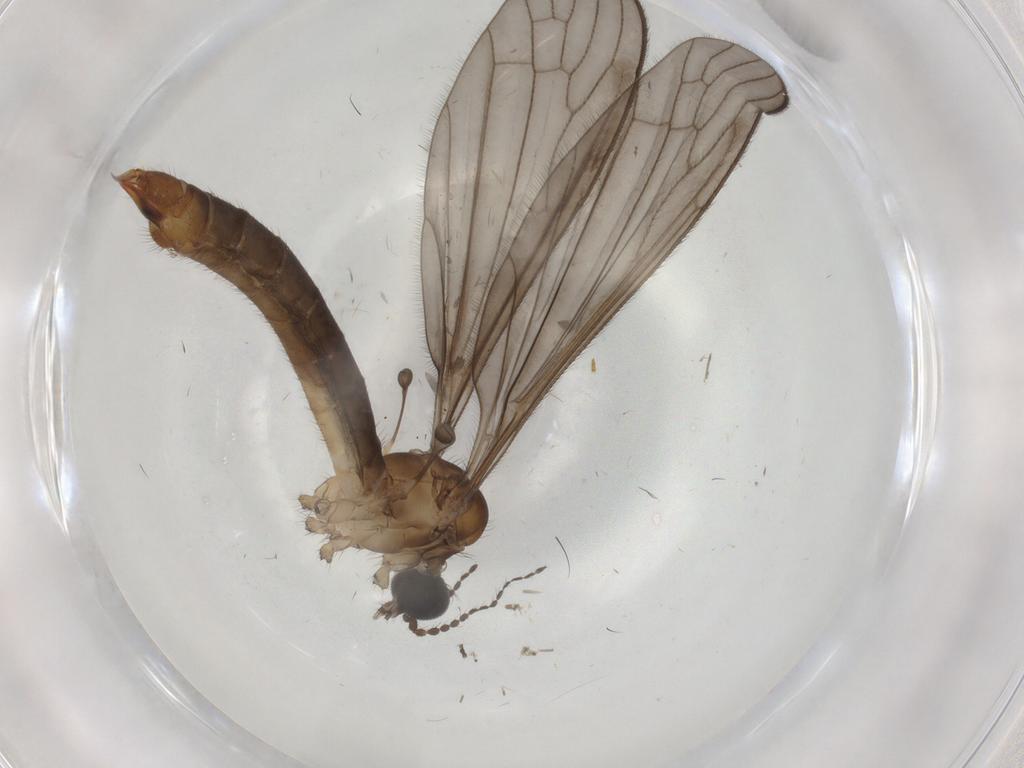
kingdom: Animalia
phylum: Arthropoda
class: Insecta
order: Diptera
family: Limoniidae
